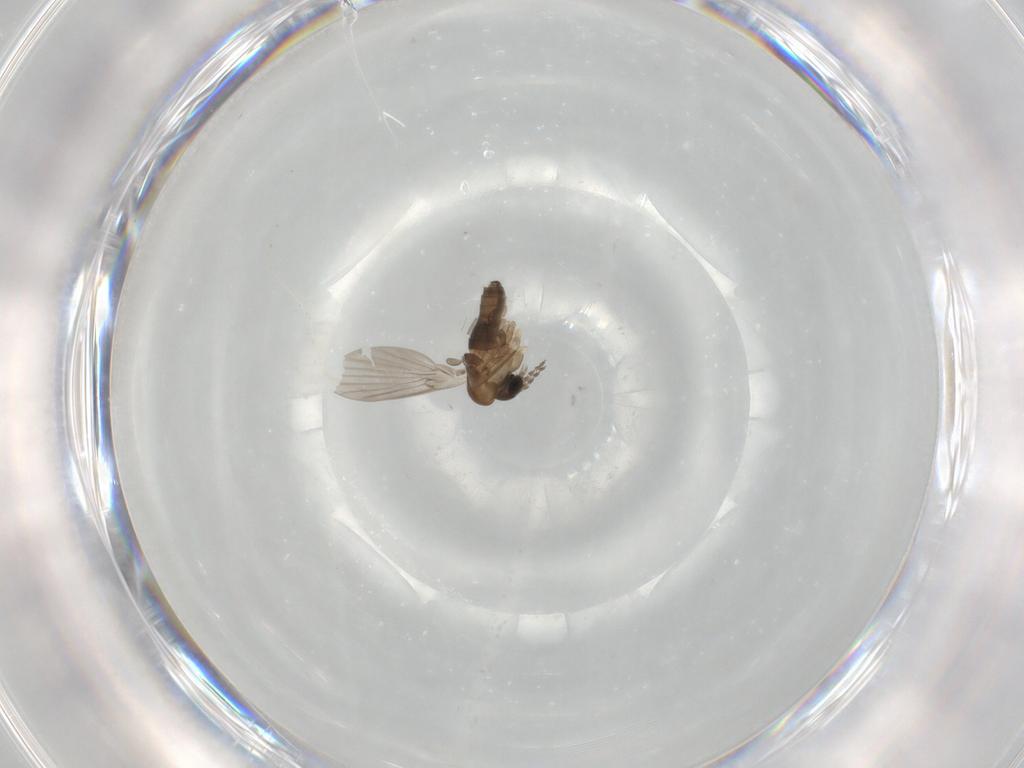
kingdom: Animalia
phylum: Arthropoda
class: Insecta
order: Diptera
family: Cecidomyiidae
